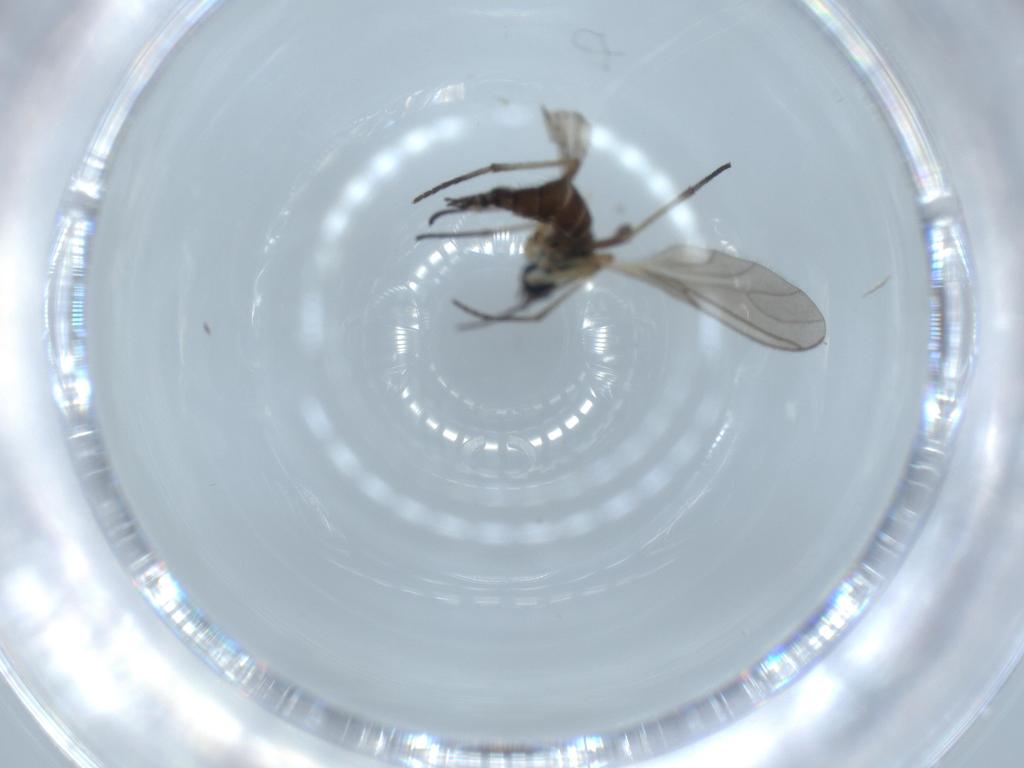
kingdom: Animalia
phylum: Arthropoda
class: Insecta
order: Diptera
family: Sciaridae
